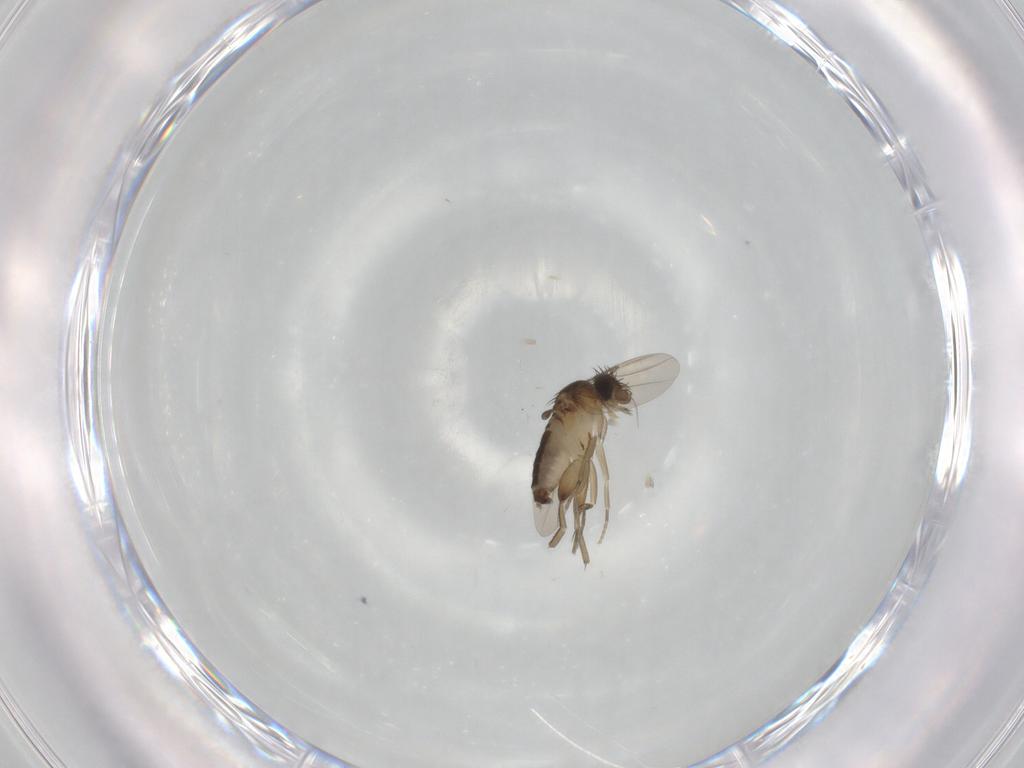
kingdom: Animalia
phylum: Arthropoda
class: Insecta
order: Diptera
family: Phoridae
